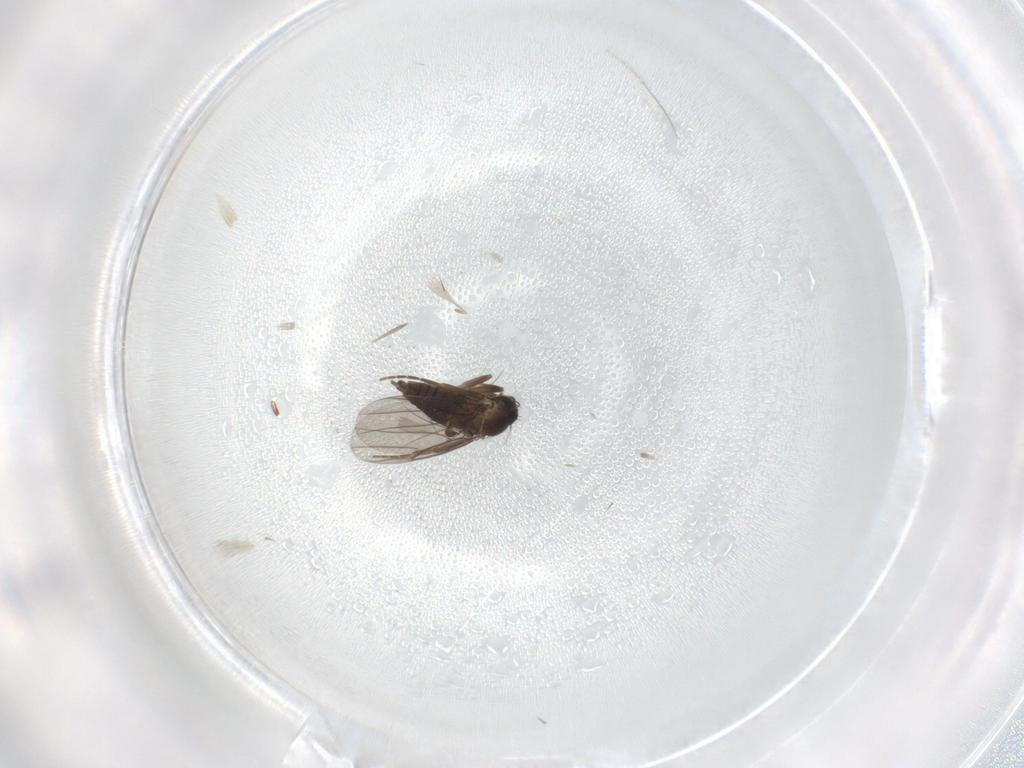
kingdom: Animalia
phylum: Arthropoda
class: Insecta
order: Diptera
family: Phoridae
